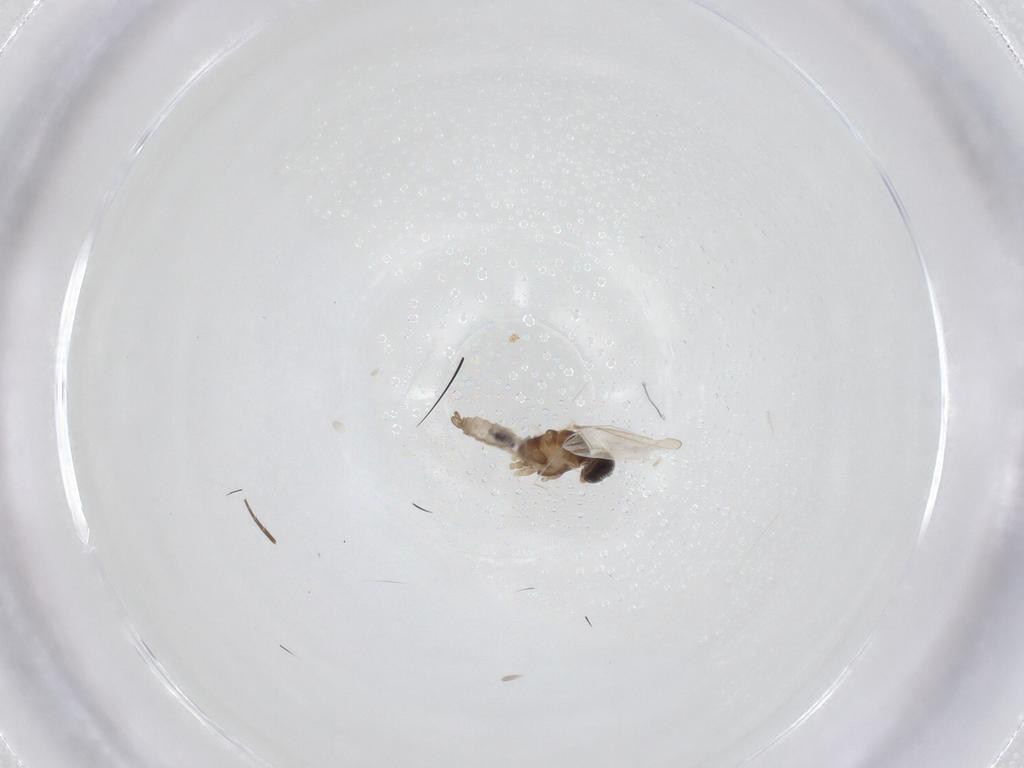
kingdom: Animalia
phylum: Arthropoda
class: Insecta
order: Diptera
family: Cecidomyiidae
